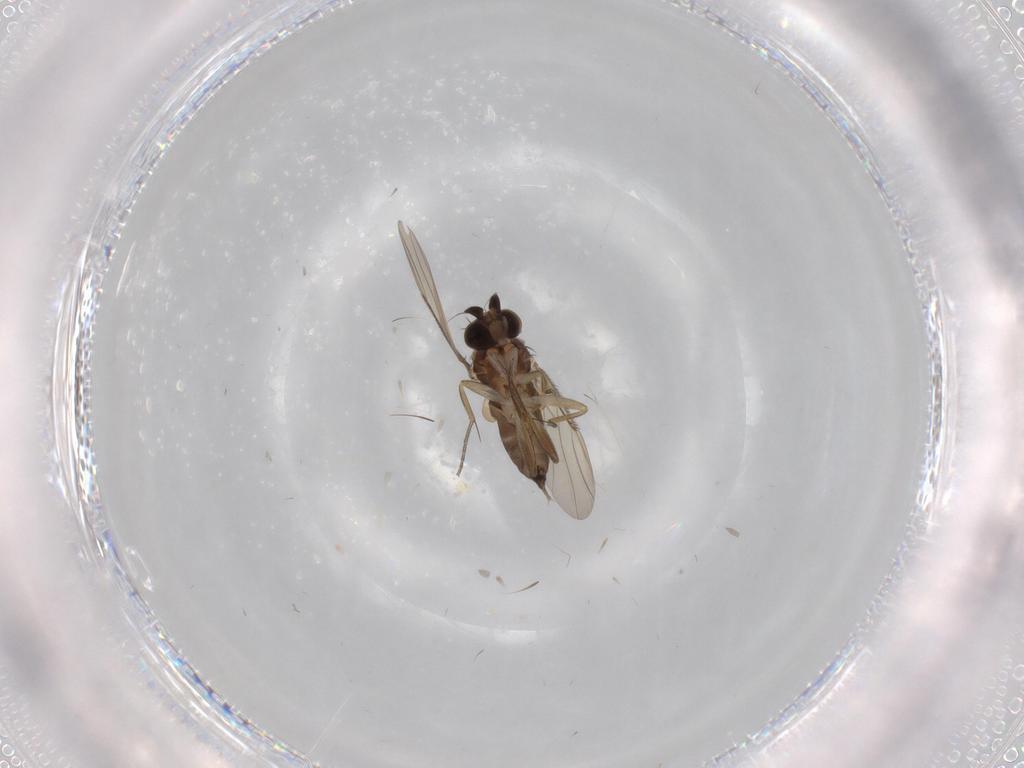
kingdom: Animalia
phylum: Arthropoda
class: Insecta
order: Diptera
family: Phoridae
